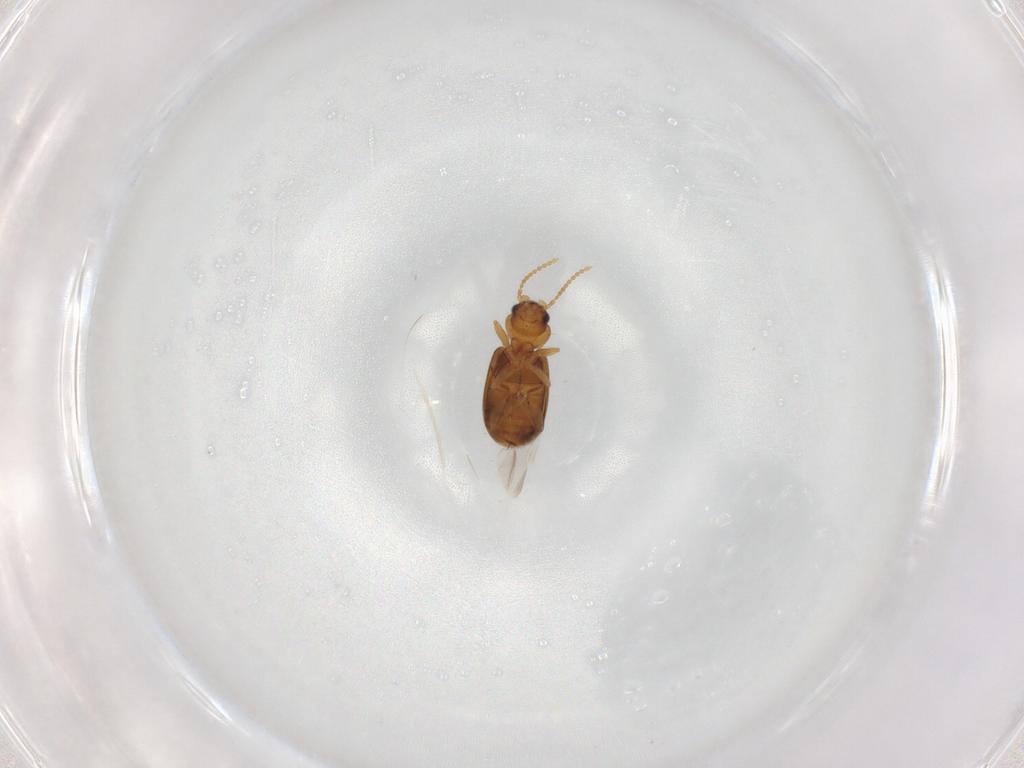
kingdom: Animalia
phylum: Arthropoda
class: Insecta
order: Coleoptera
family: Carabidae
